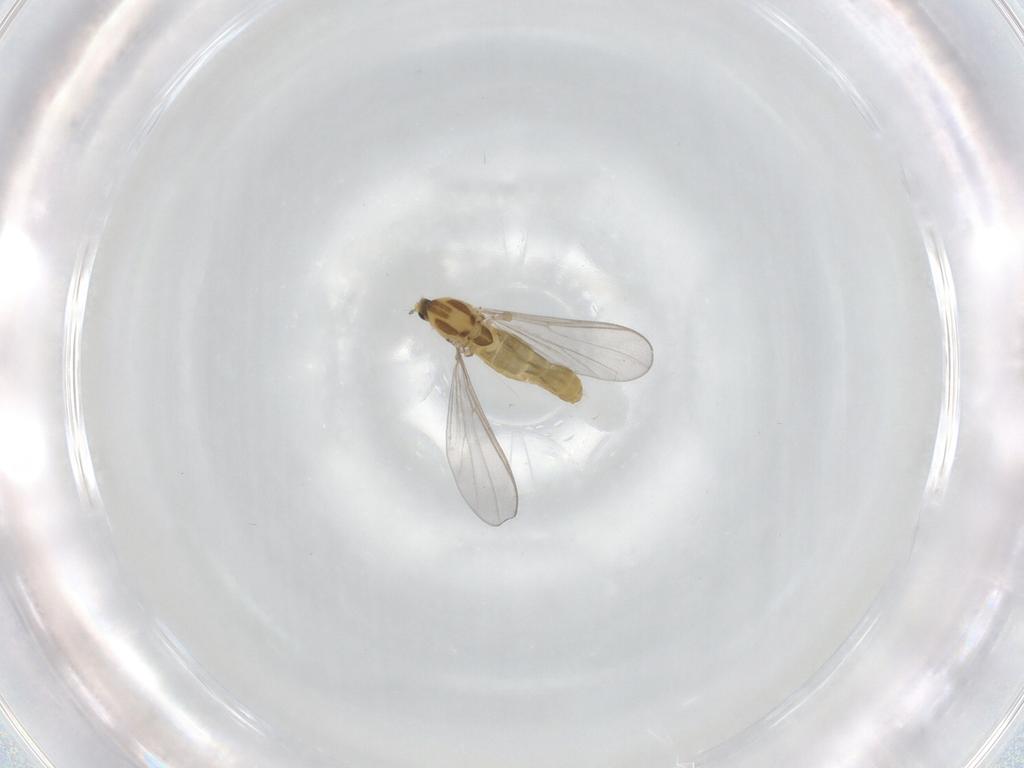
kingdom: Animalia
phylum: Arthropoda
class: Insecta
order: Diptera
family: Chironomidae
